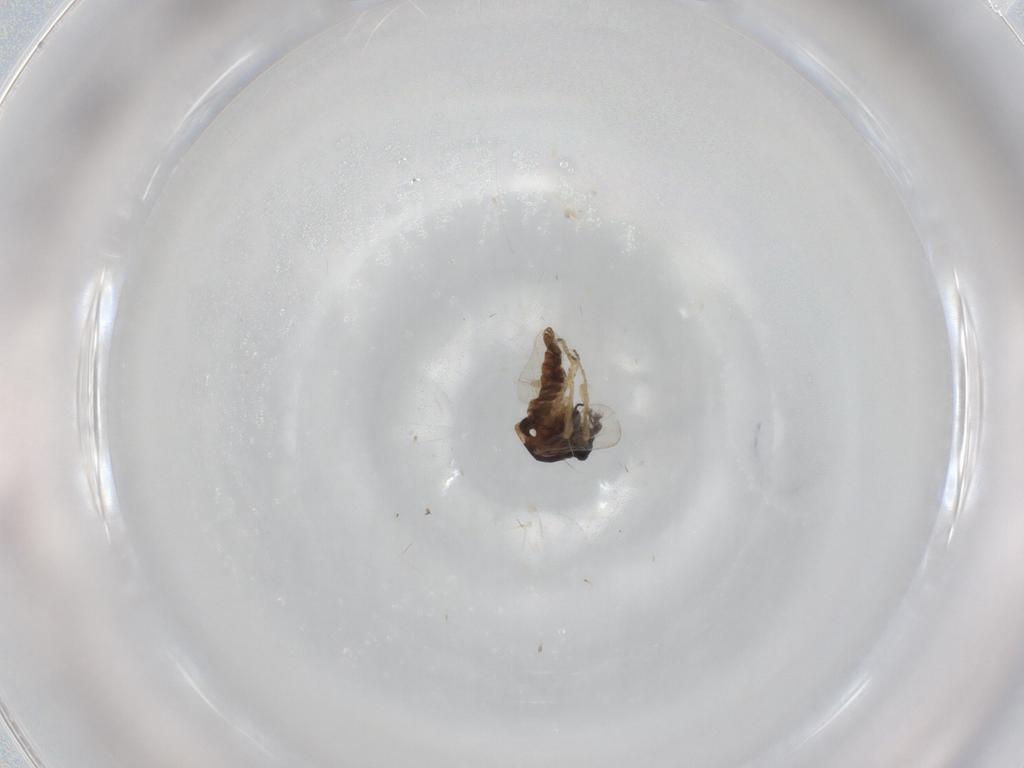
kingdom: Animalia
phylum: Arthropoda
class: Insecta
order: Diptera
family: Ceratopogonidae
